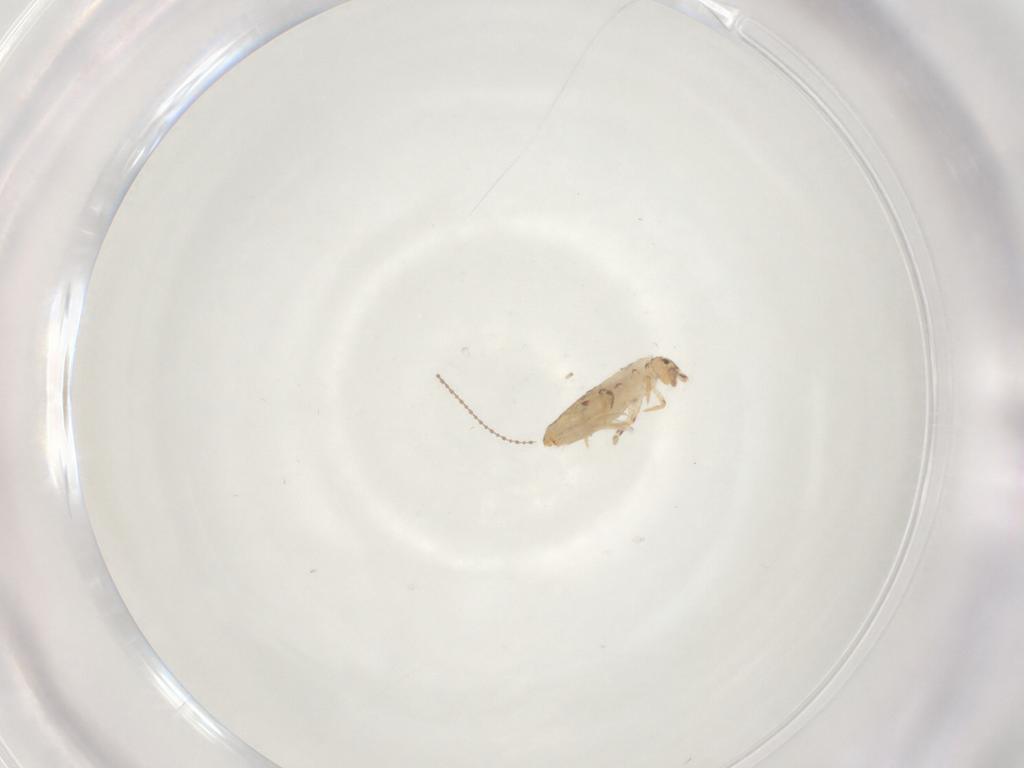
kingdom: Animalia
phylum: Arthropoda
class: Collembola
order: Entomobryomorpha
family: Entomobryidae
